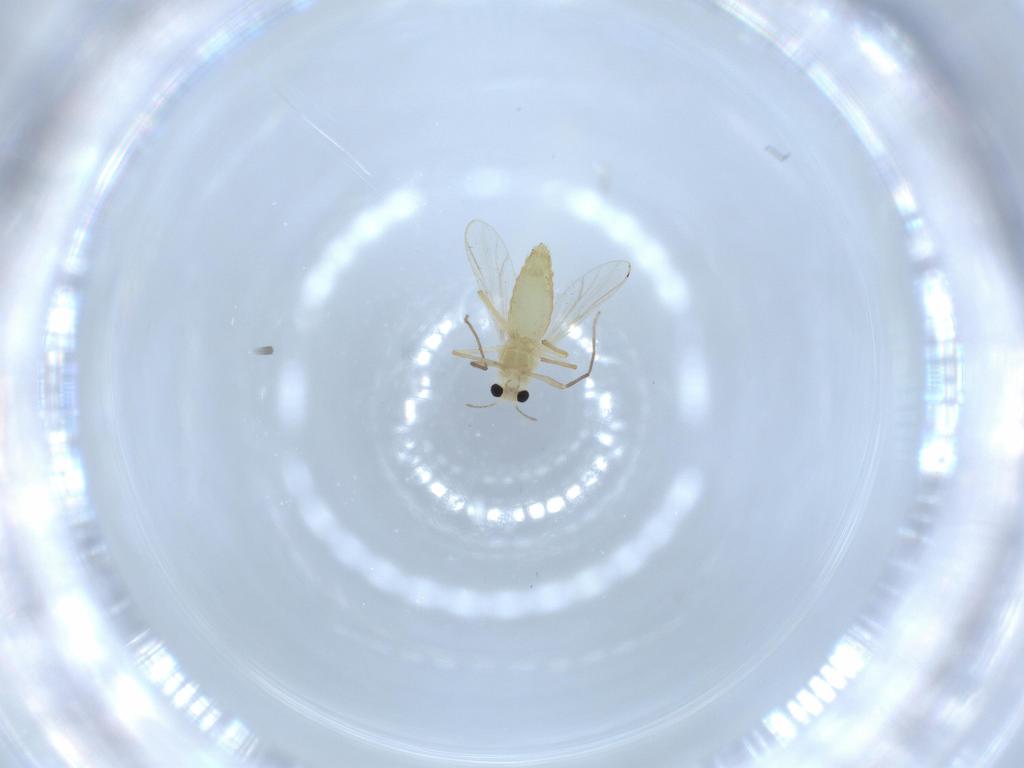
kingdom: Animalia
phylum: Arthropoda
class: Insecta
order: Diptera
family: Chironomidae
